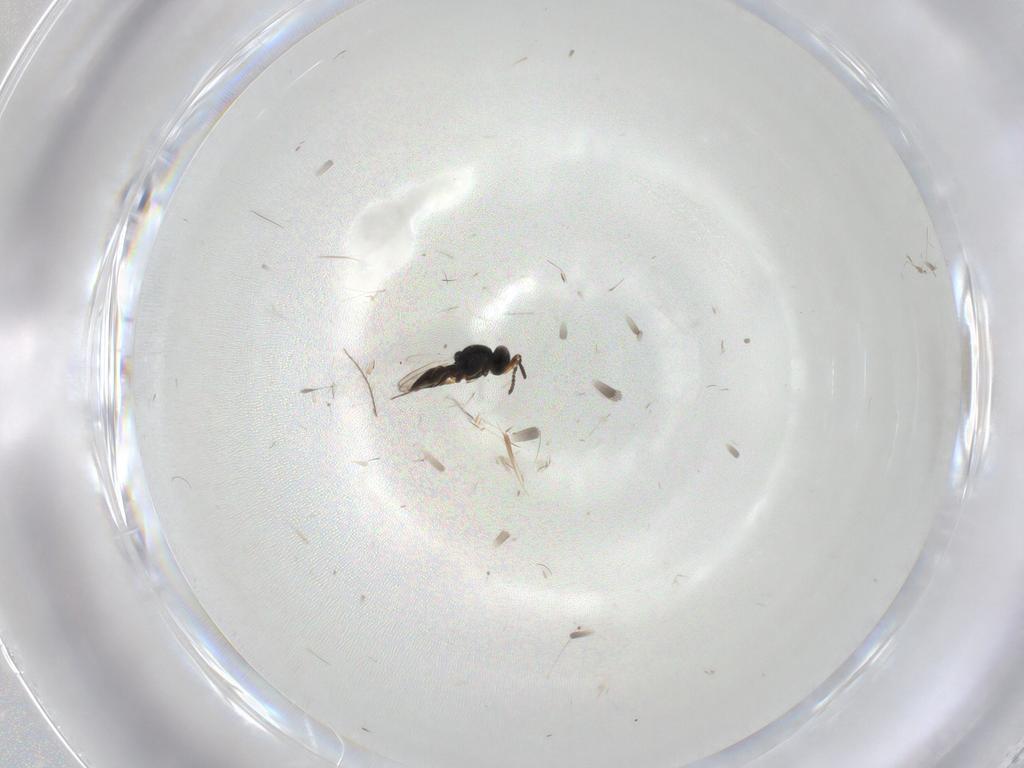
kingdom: Animalia
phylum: Arthropoda
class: Insecta
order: Hymenoptera
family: Platygastridae
